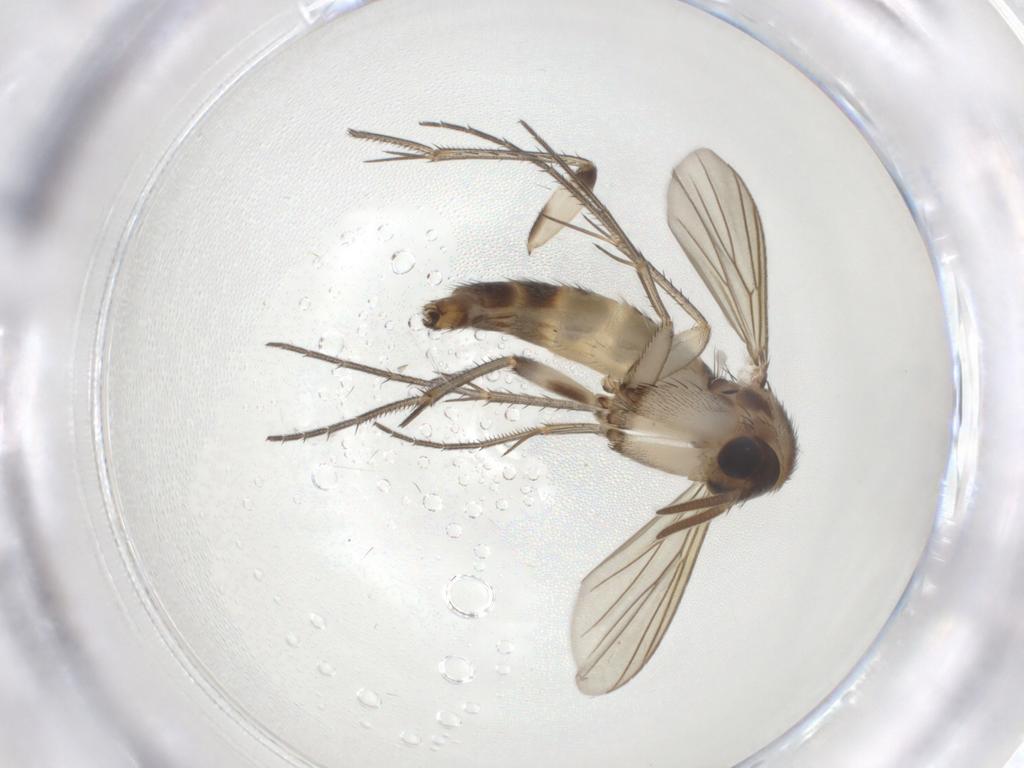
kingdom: Animalia
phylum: Arthropoda
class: Insecta
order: Diptera
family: Mycetophilidae
